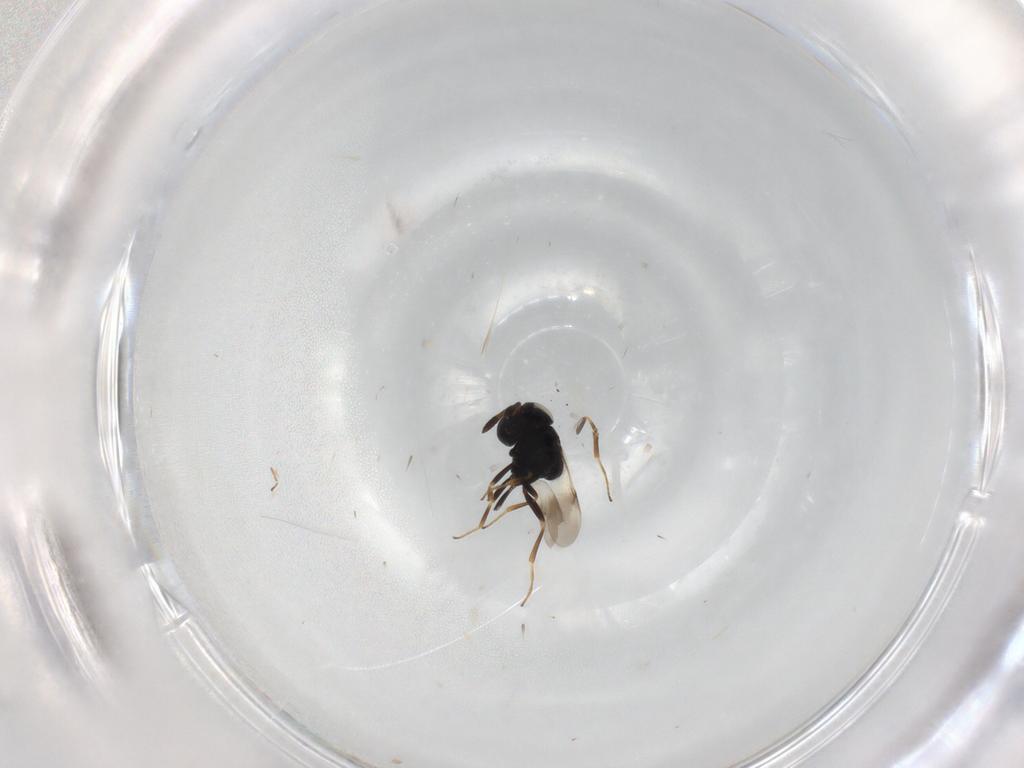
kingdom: Animalia
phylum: Arthropoda
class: Insecta
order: Hymenoptera
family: Scelionidae
